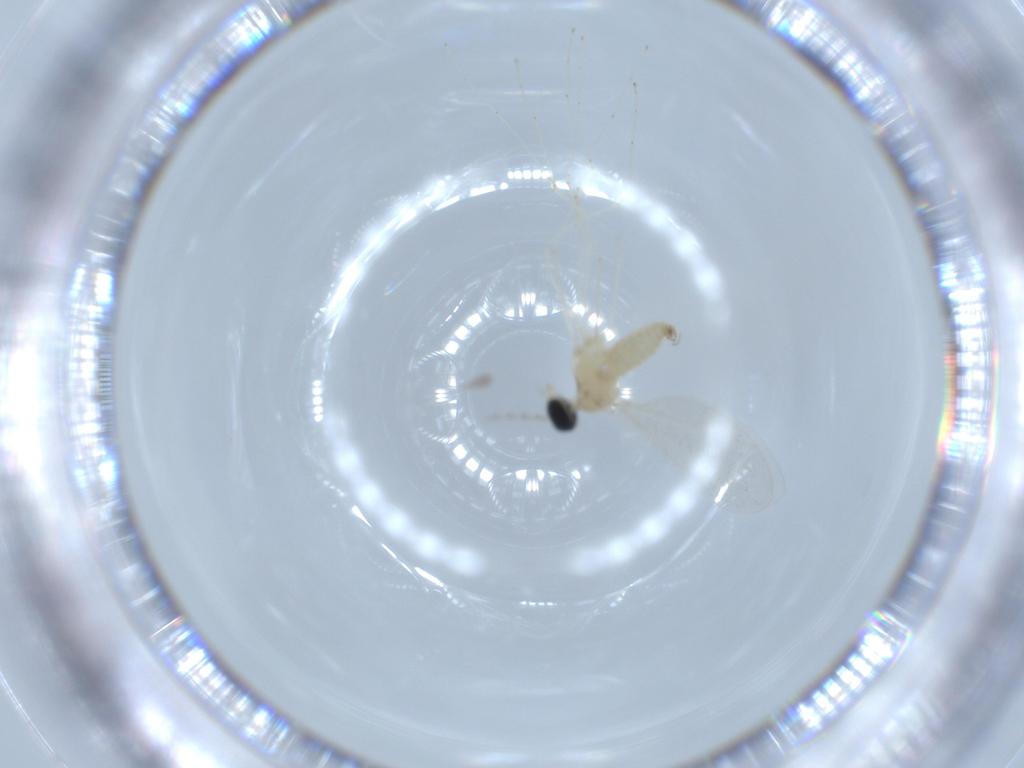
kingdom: Animalia
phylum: Arthropoda
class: Insecta
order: Diptera
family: Cecidomyiidae
